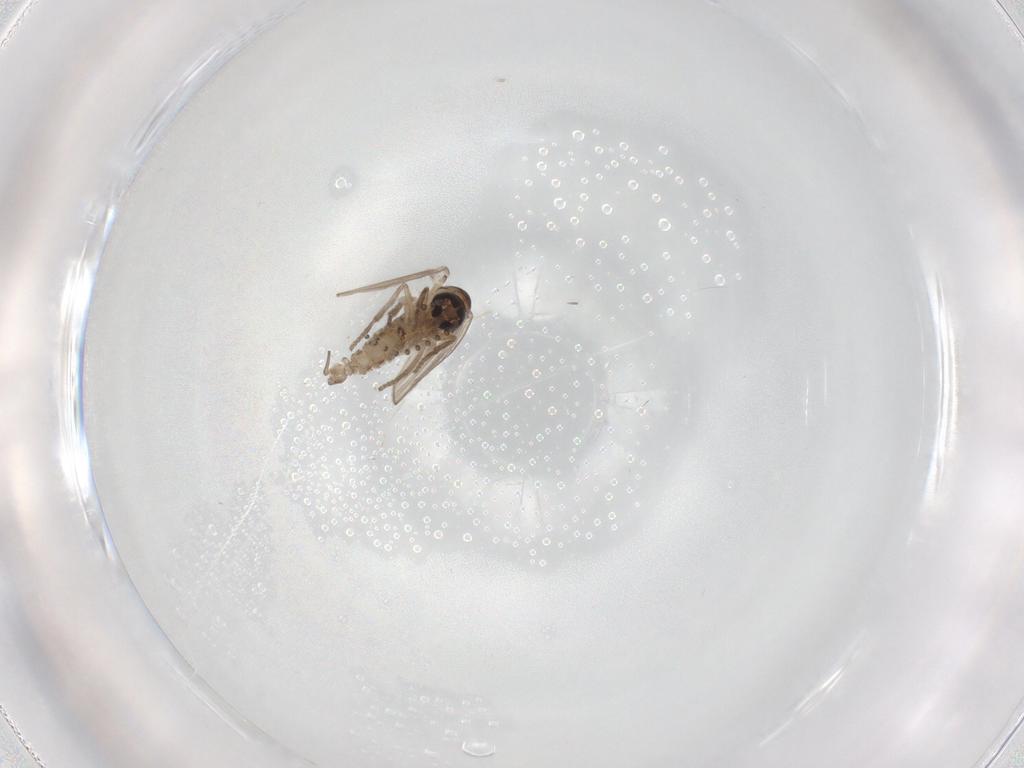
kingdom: Animalia
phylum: Arthropoda
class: Insecta
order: Diptera
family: Psychodidae
